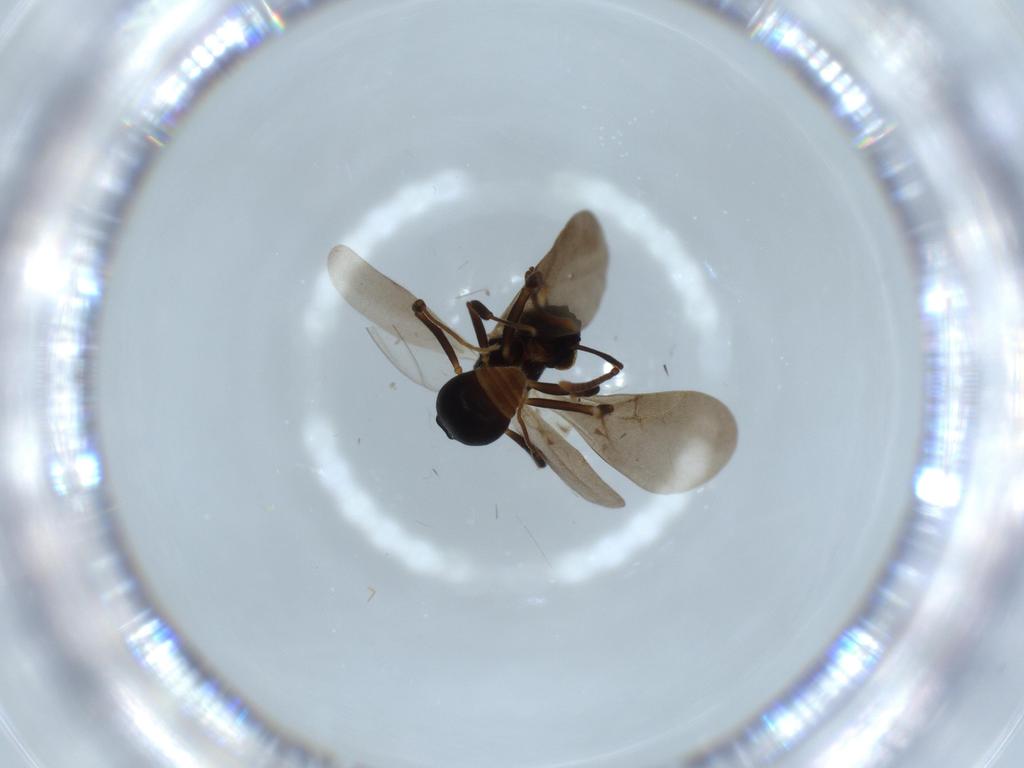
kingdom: Animalia
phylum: Arthropoda
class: Insecta
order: Hymenoptera
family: Formicidae
